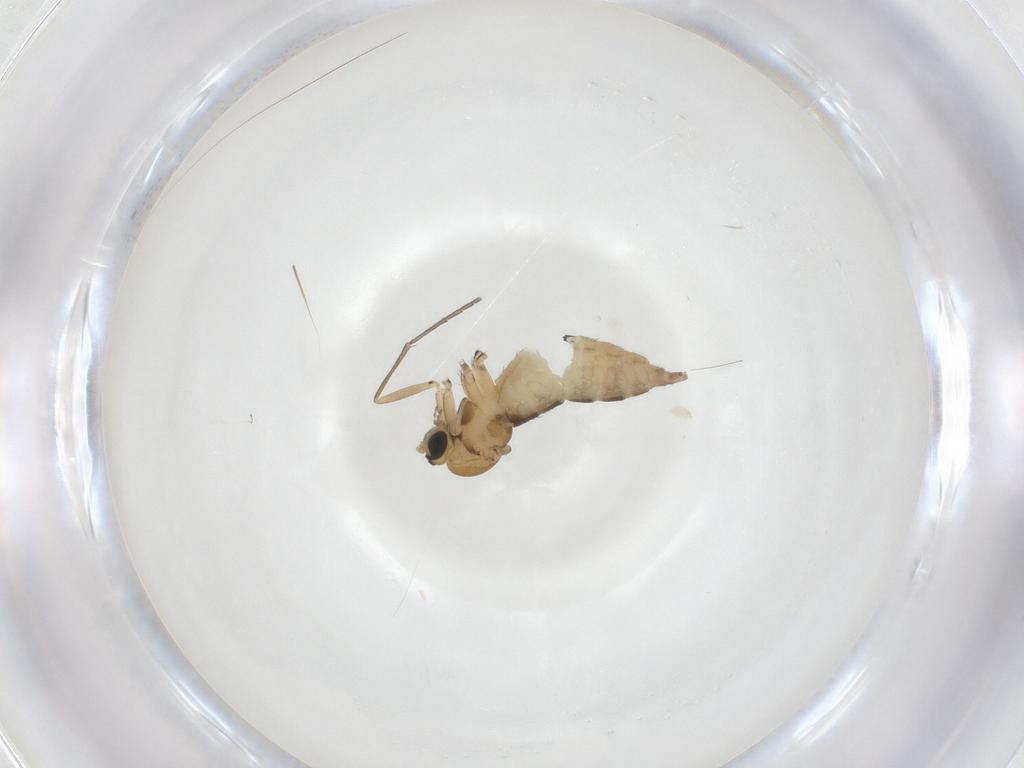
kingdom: Animalia
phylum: Arthropoda
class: Insecta
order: Diptera
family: Sciaridae
